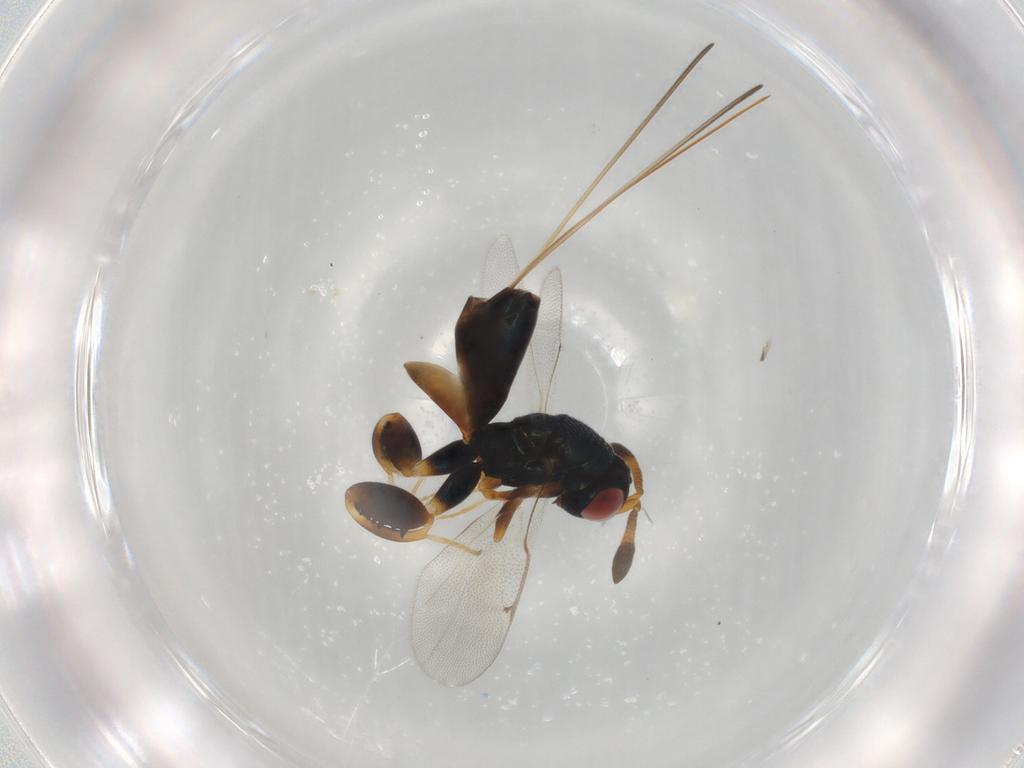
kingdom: Animalia
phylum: Arthropoda
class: Insecta
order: Hymenoptera
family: Torymidae
